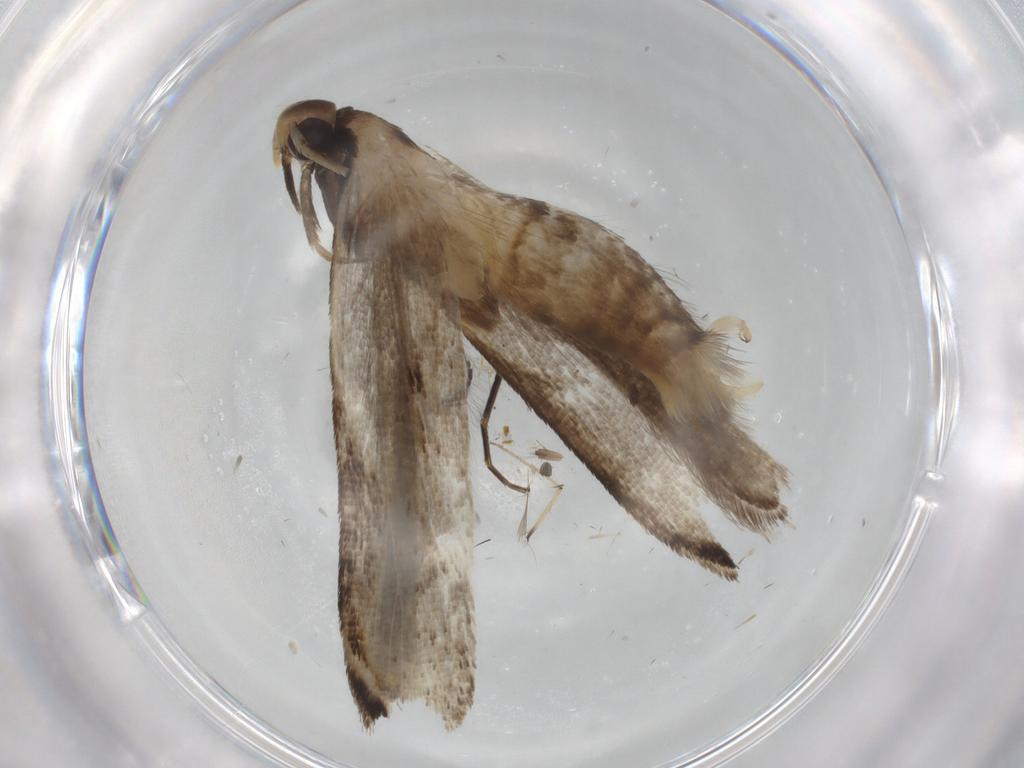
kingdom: Animalia
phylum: Arthropoda
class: Insecta
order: Lepidoptera
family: Gelechiidae
